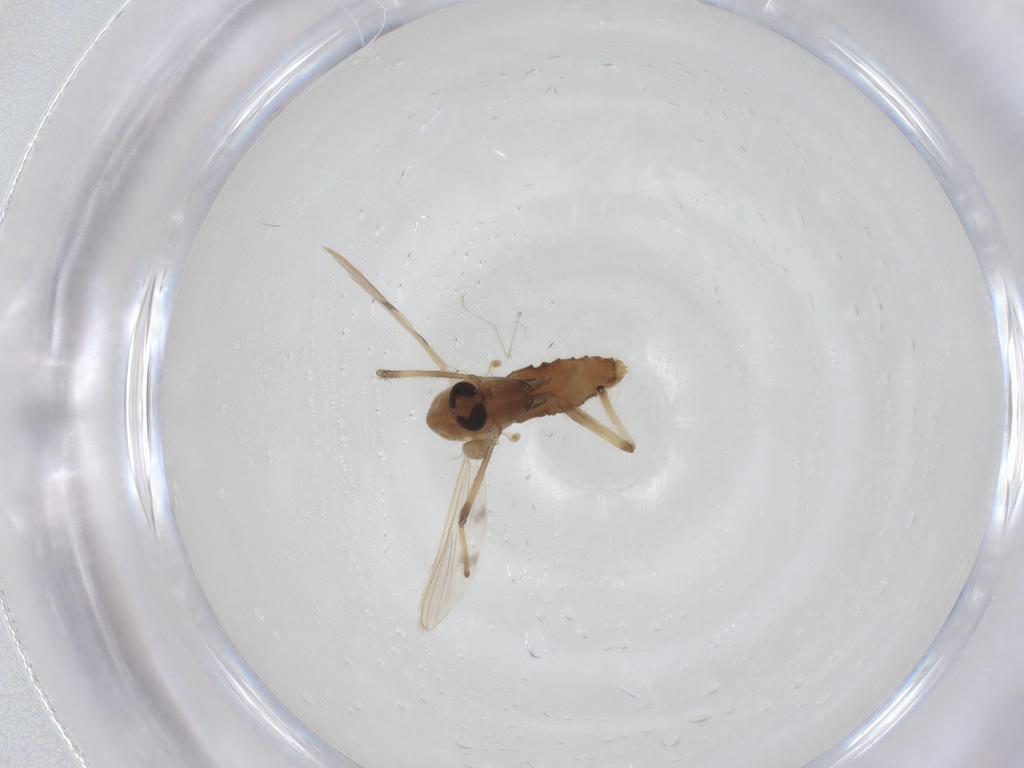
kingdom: Animalia
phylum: Arthropoda
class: Insecta
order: Diptera
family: Chironomidae
